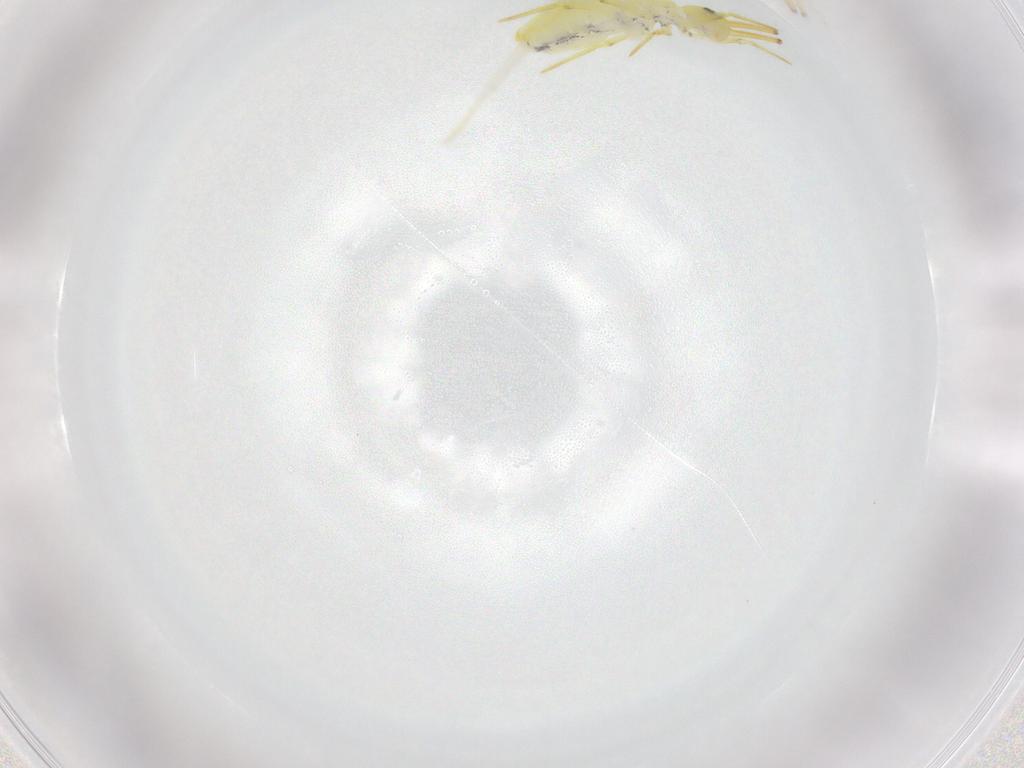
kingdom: Animalia
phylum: Arthropoda
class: Collembola
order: Entomobryomorpha
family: Entomobryidae
